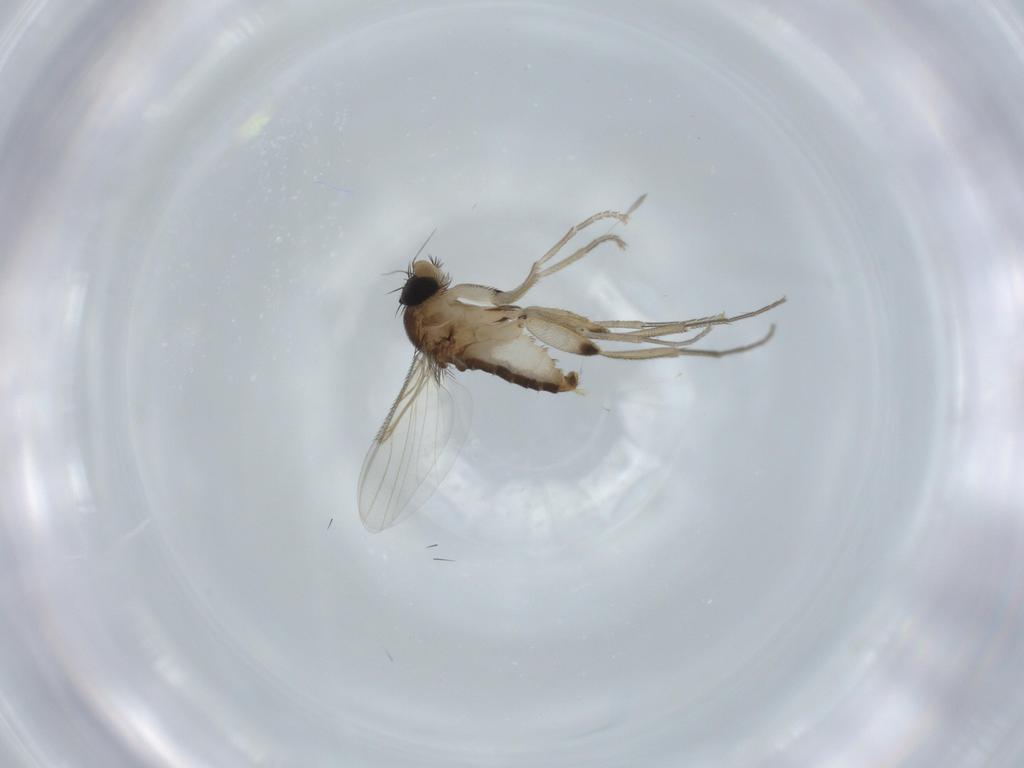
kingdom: Animalia
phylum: Arthropoda
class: Insecta
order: Diptera
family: Phoridae
